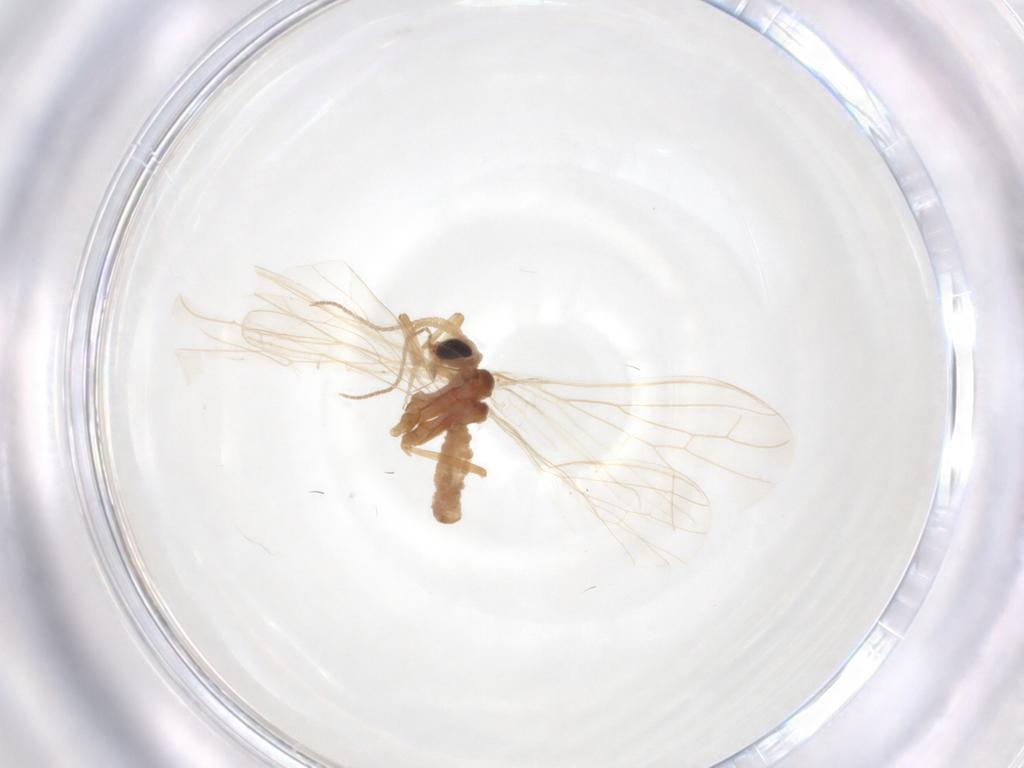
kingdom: Animalia
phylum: Arthropoda
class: Insecta
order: Neuroptera
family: Coniopterygidae
